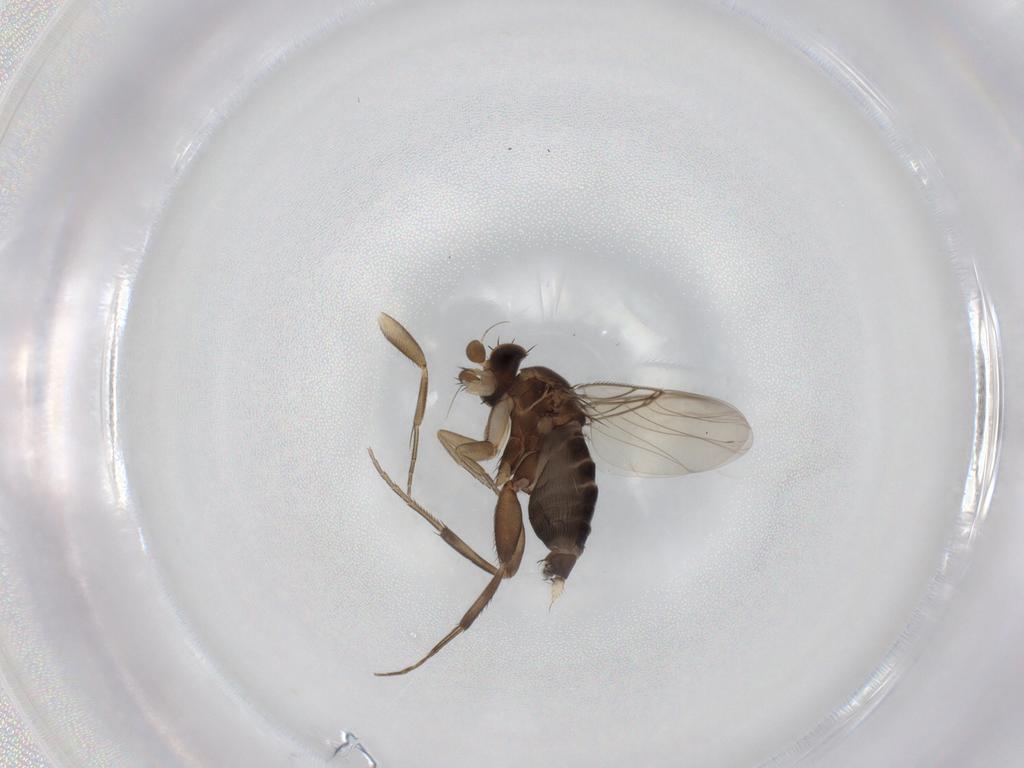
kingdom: Animalia
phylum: Arthropoda
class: Insecta
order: Diptera
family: Phoridae
